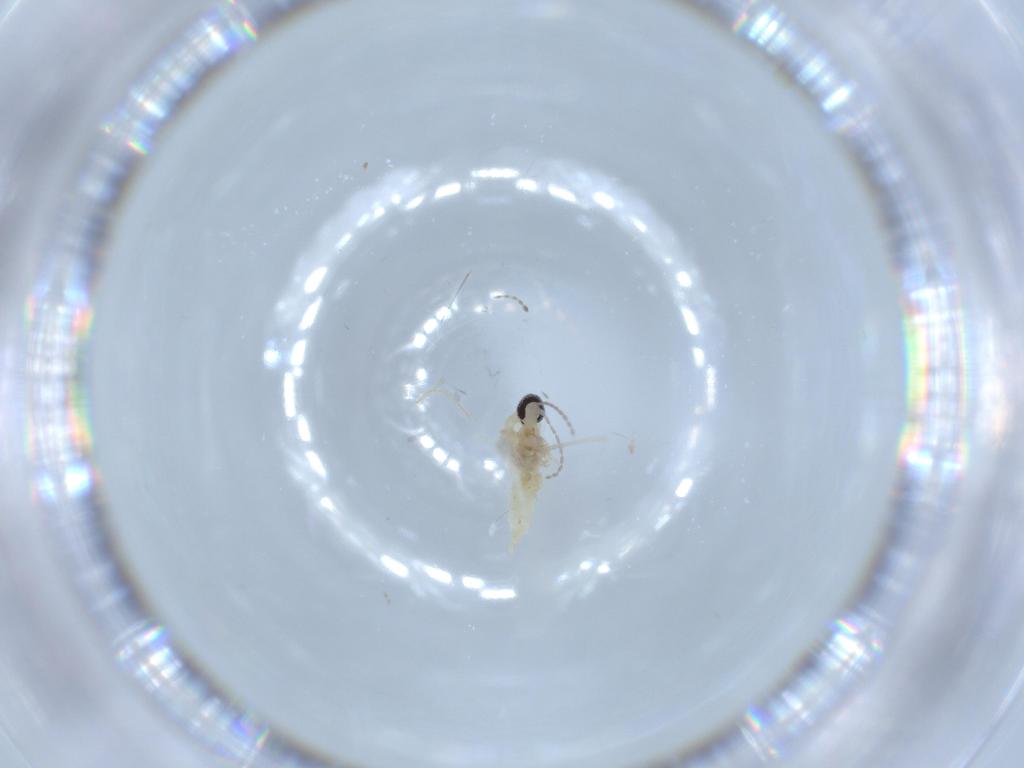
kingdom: Animalia
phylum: Arthropoda
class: Insecta
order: Diptera
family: Cecidomyiidae
